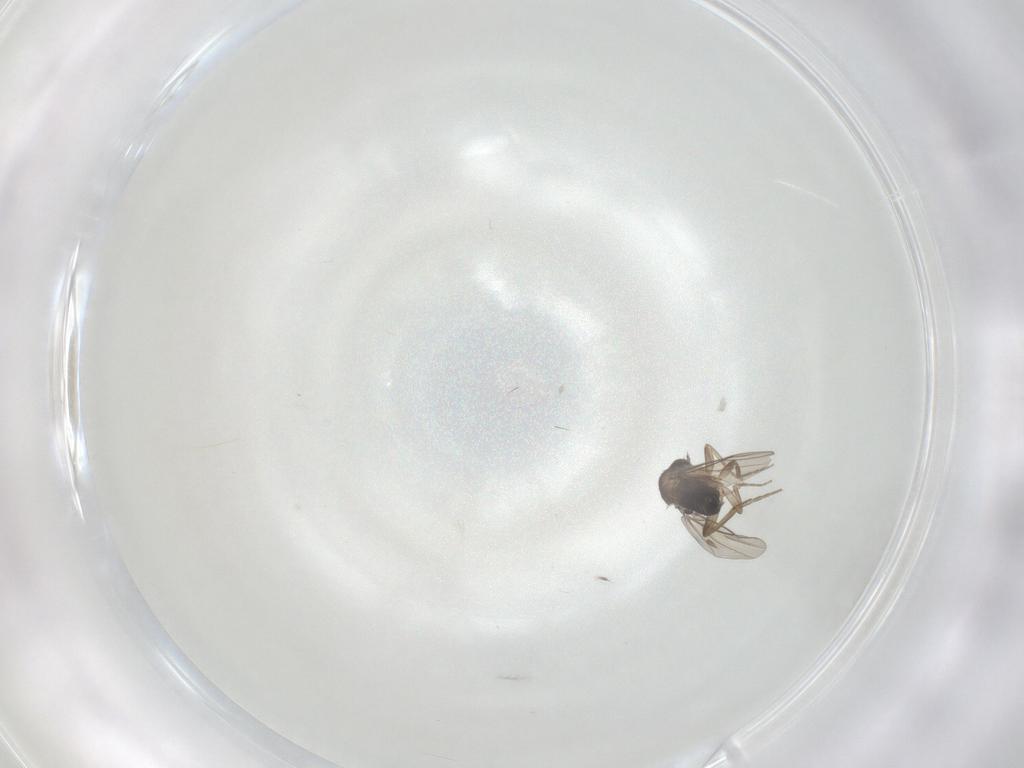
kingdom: Animalia
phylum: Arthropoda
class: Insecta
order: Diptera
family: Phoridae
